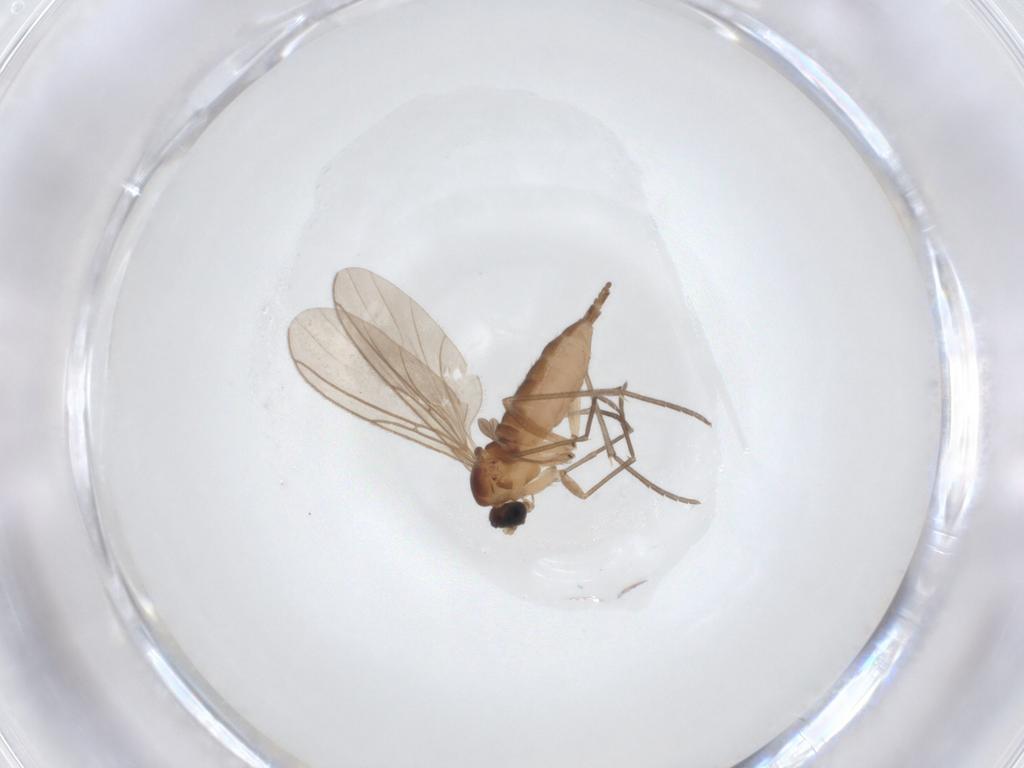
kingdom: Animalia
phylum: Arthropoda
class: Insecta
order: Diptera
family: Sciaridae
